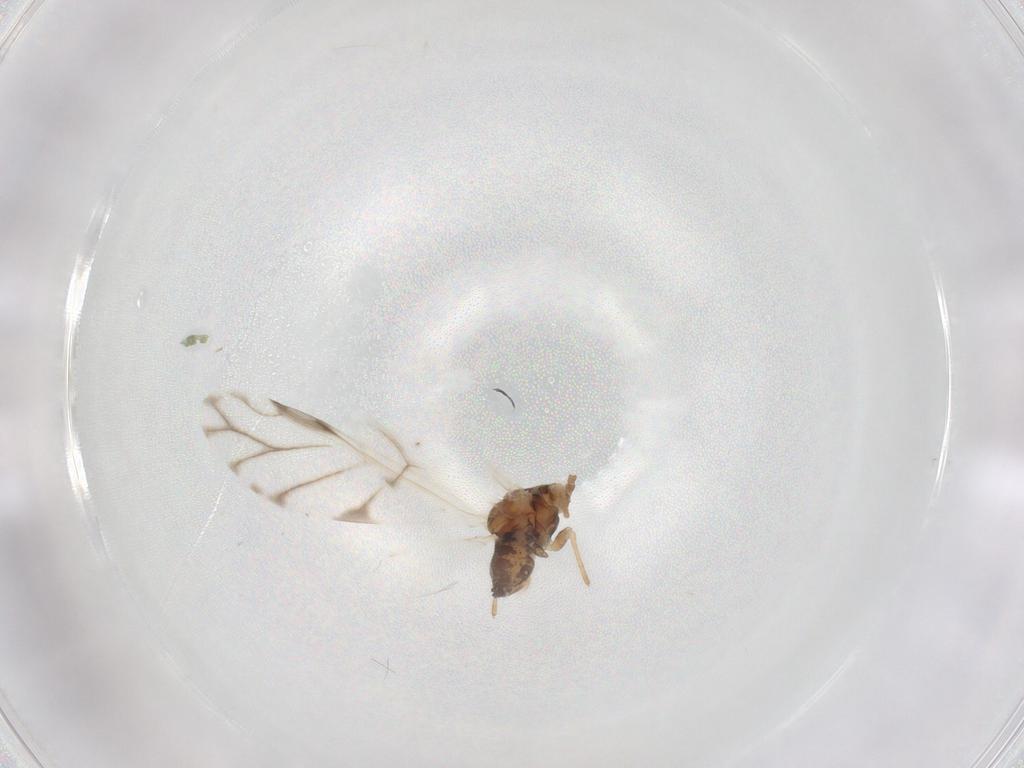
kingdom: Animalia
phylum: Arthropoda
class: Insecta
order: Hemiptera
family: Aphididae
